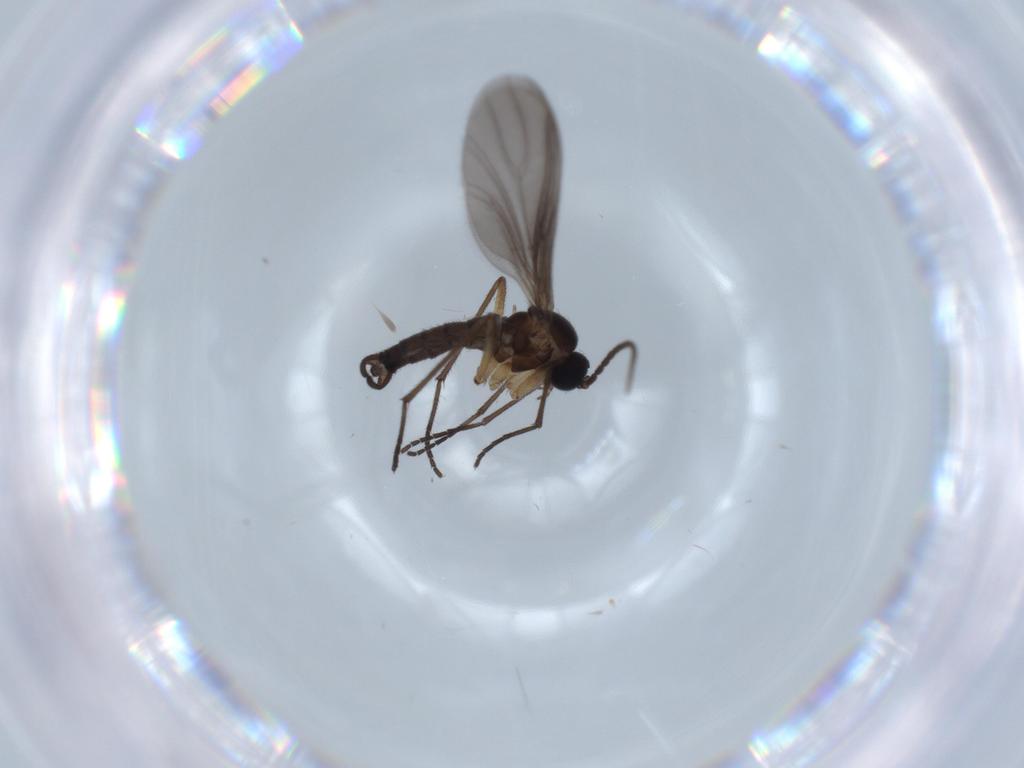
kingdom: Animalia
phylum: Arthropoda
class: Insecta
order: Diptera
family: Sciaridae
